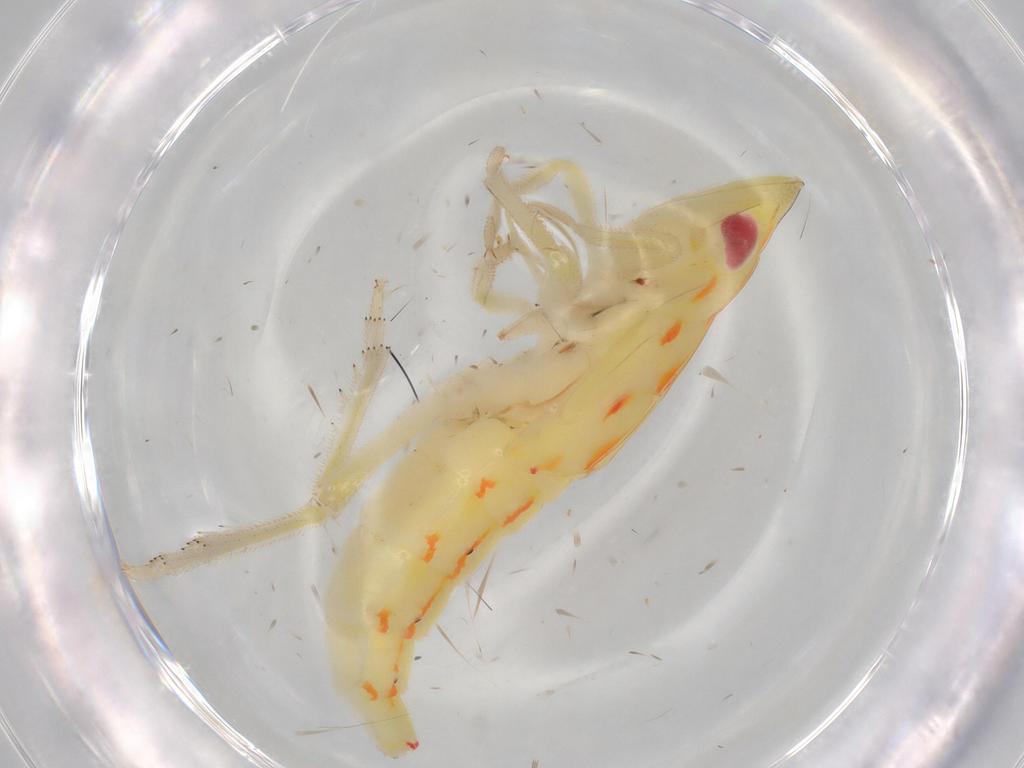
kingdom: Animalia
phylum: Arthropoda
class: Insecta
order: Hemiptera
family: Tropiduchidae
